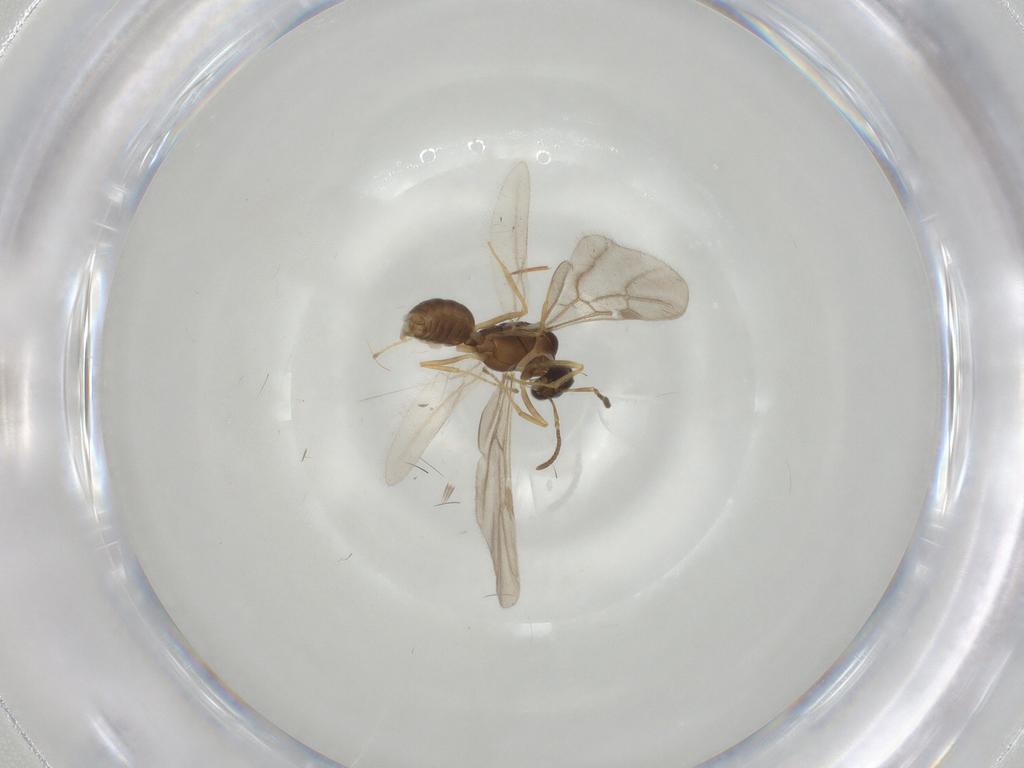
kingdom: Animalia
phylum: Arthropoda
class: Insecta
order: Hymenoptera
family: Formicidae
